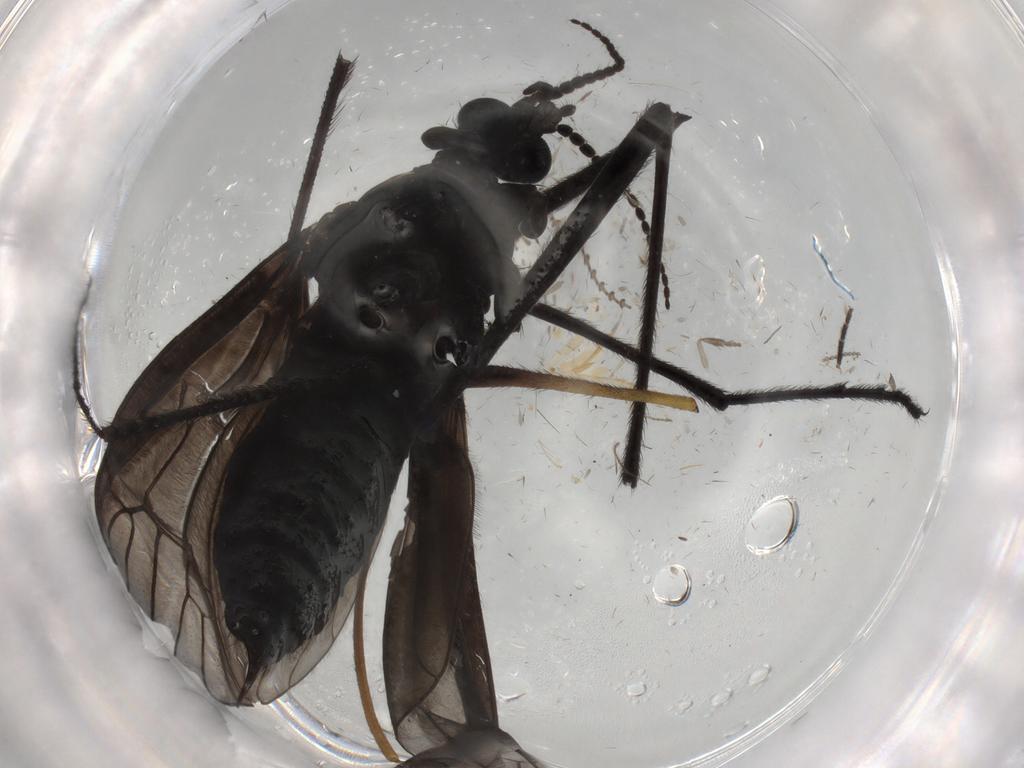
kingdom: Animalia
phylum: Arthropoda
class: Insecta
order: Diptera
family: Limoniidae
